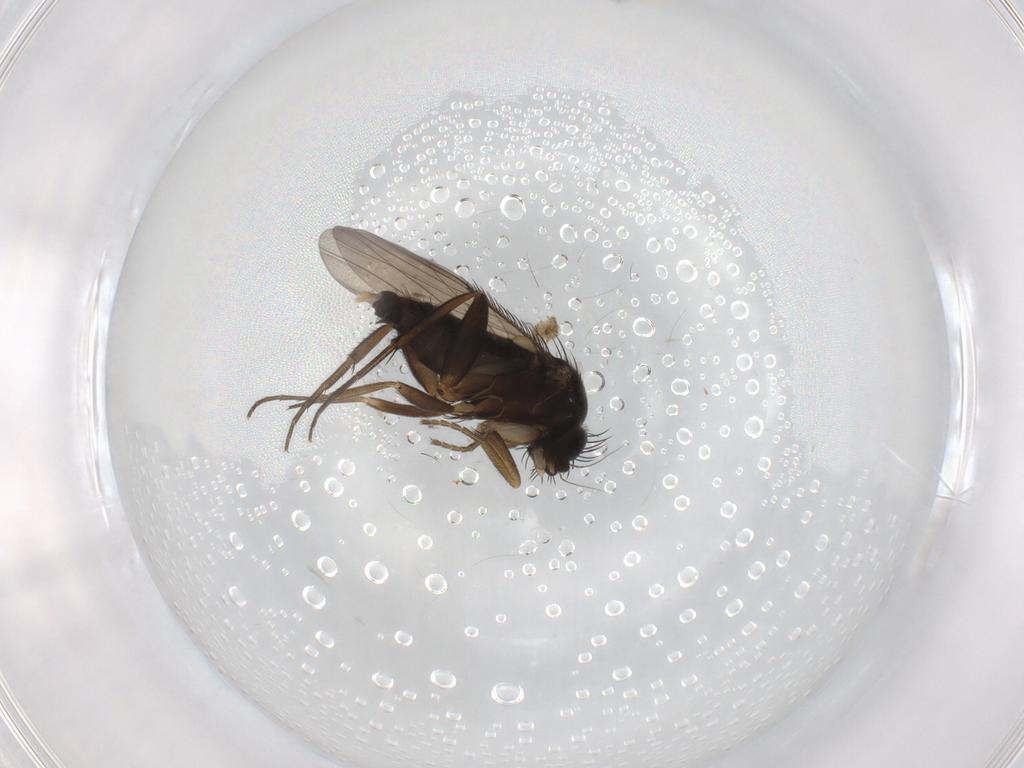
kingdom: Animalia
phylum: Arthropoda
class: Insecta
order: Diptera
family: Phoridae
